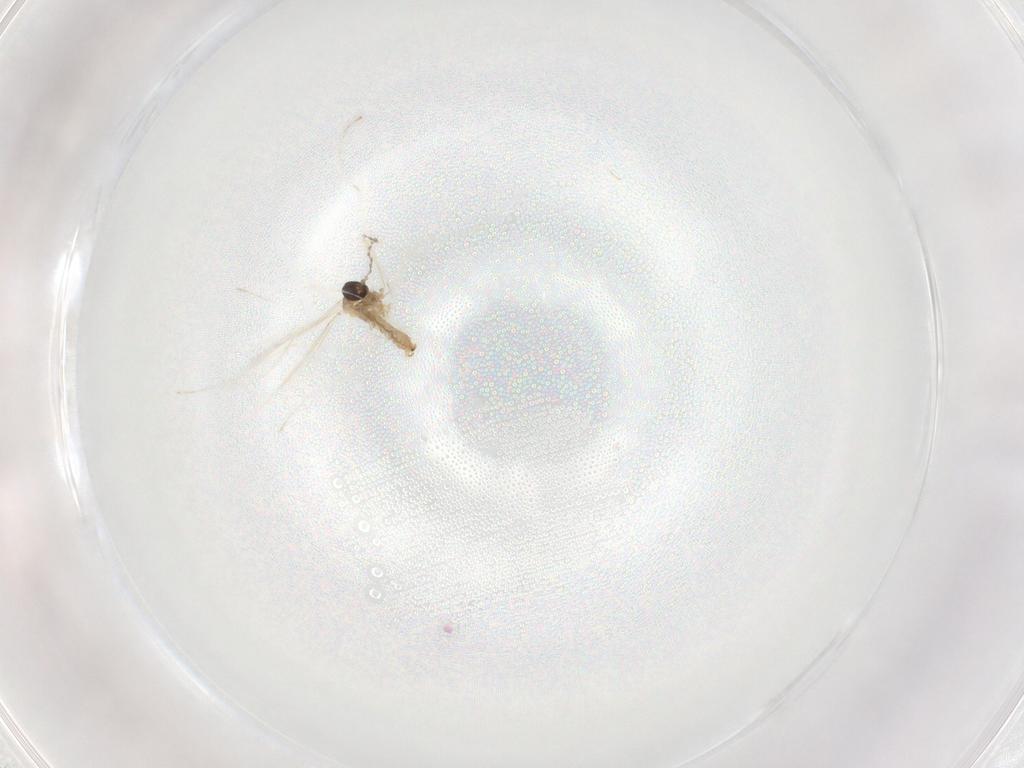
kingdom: Animalia
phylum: Arthropoda
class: Insecta
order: Diptera
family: Cecidomyiidae
